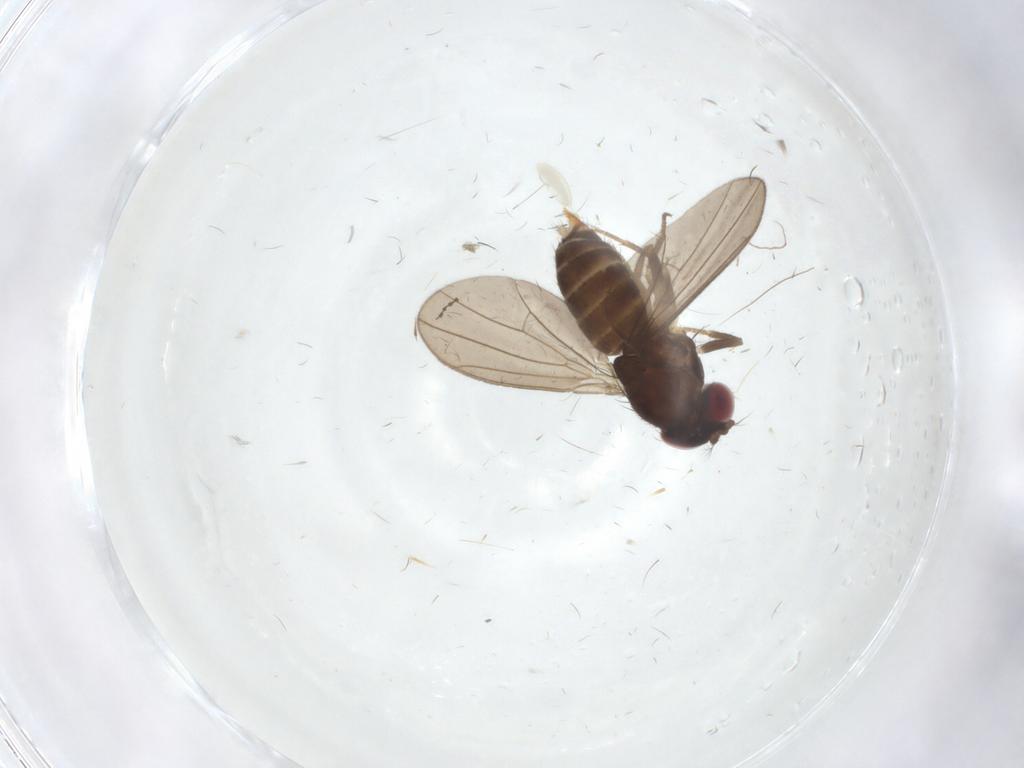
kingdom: Animalia
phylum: Arthropoda
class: Insecta
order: Diptera
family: Drosophilidae
